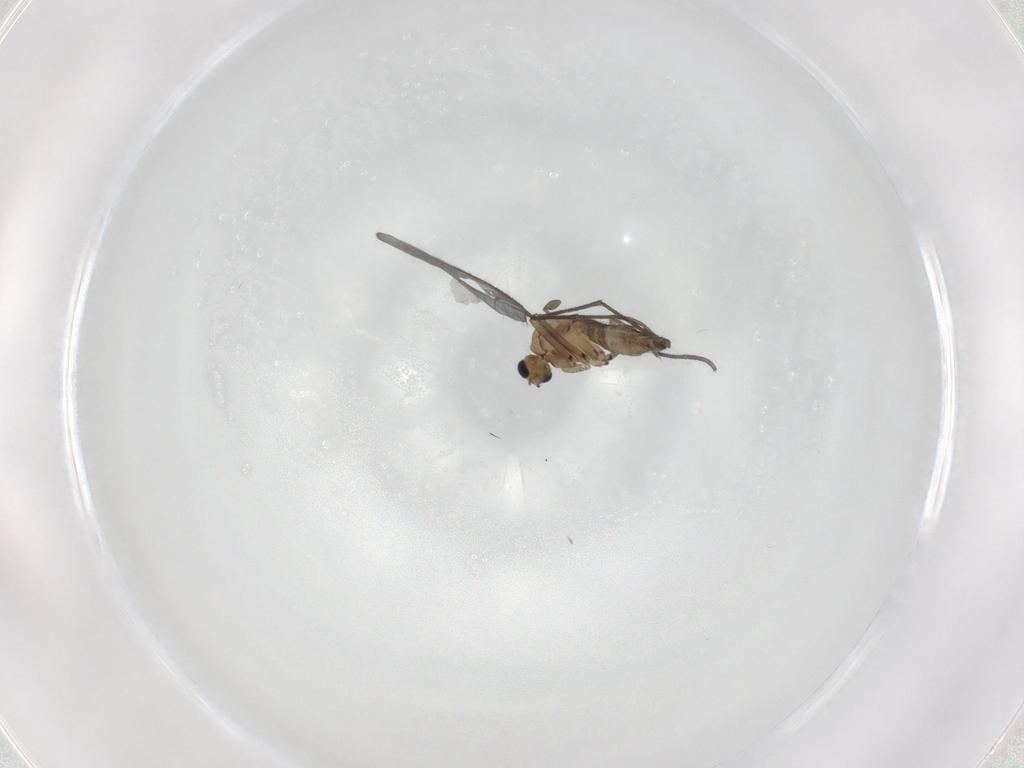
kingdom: Animalia
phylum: Arthropoda
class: Insecta
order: Diptera
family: Sciaridae
